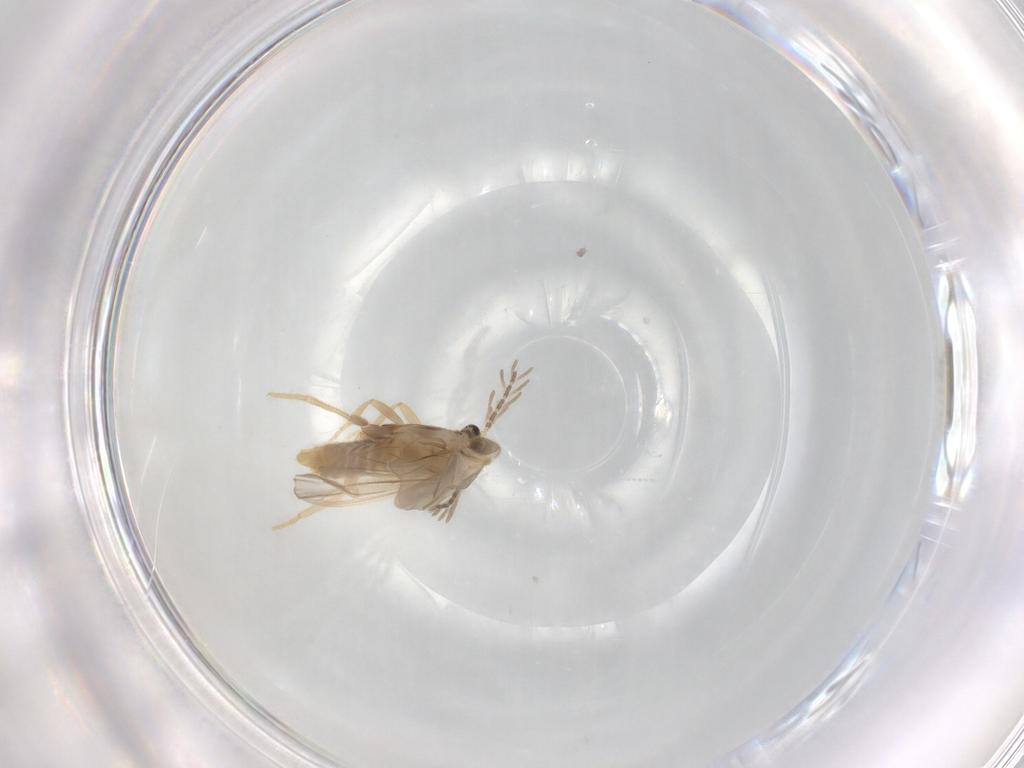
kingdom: Animalia
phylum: Arthropoda
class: Insecta
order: Coleoptera
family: Phengodidae
